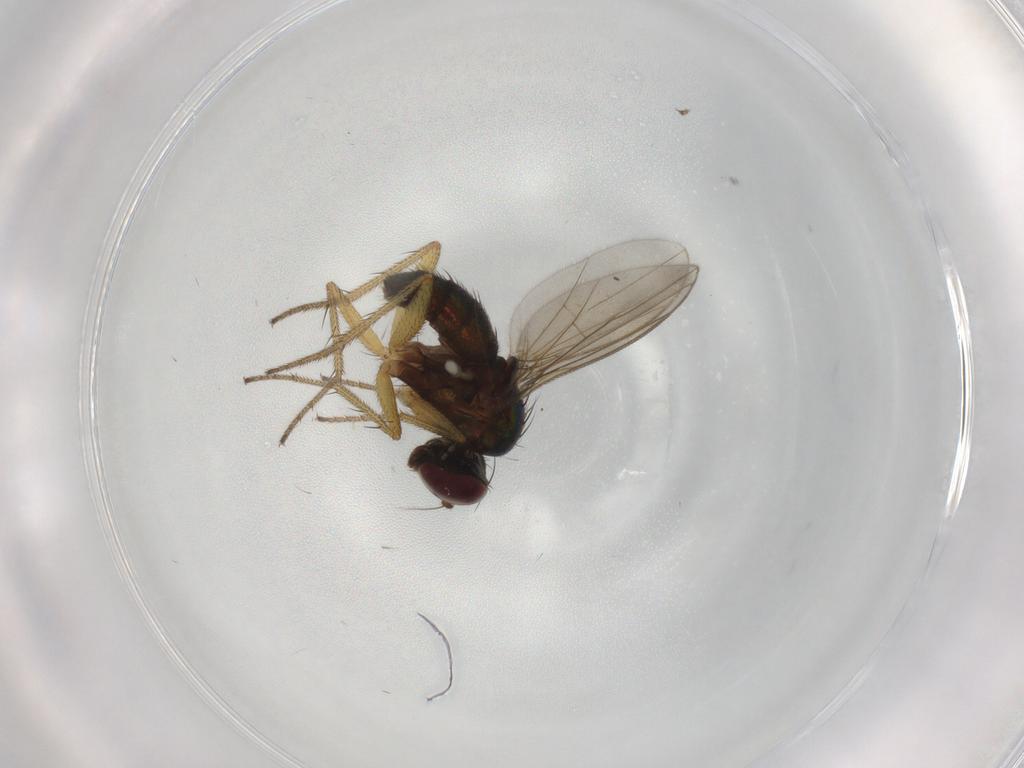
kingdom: Animalia
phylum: Arthropoda
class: Insecta
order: Diptera
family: Dolichopodidae
